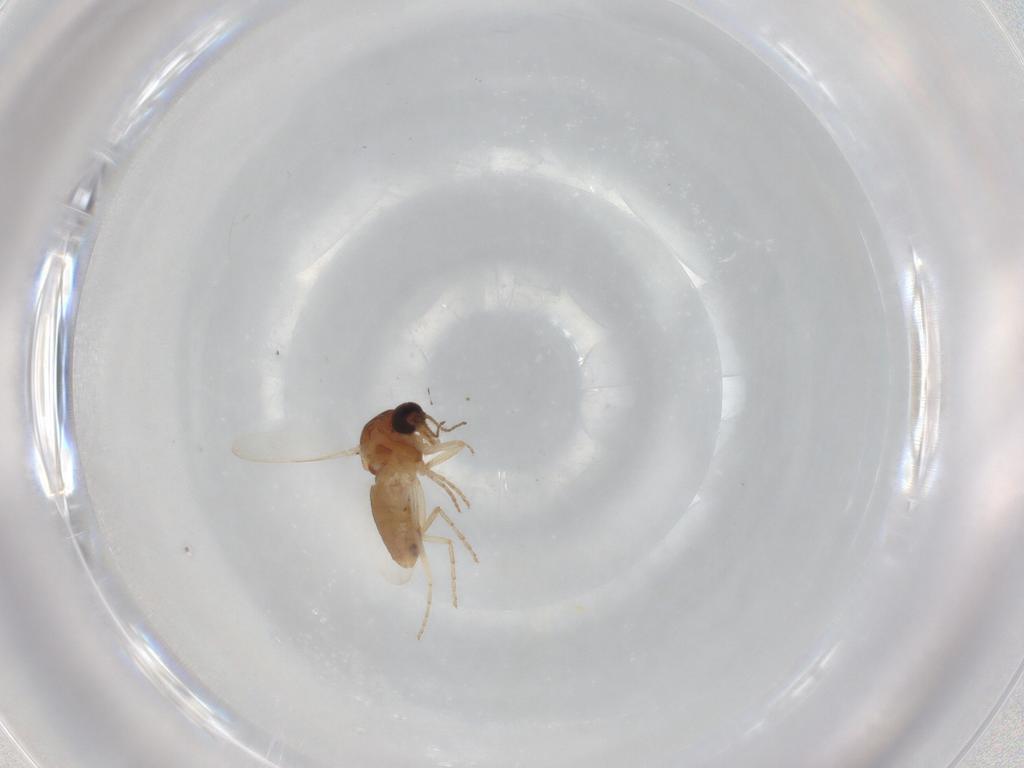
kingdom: Animalia
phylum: Arthropoda
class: Insecta
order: Diptera
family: Ceratopogonidae
